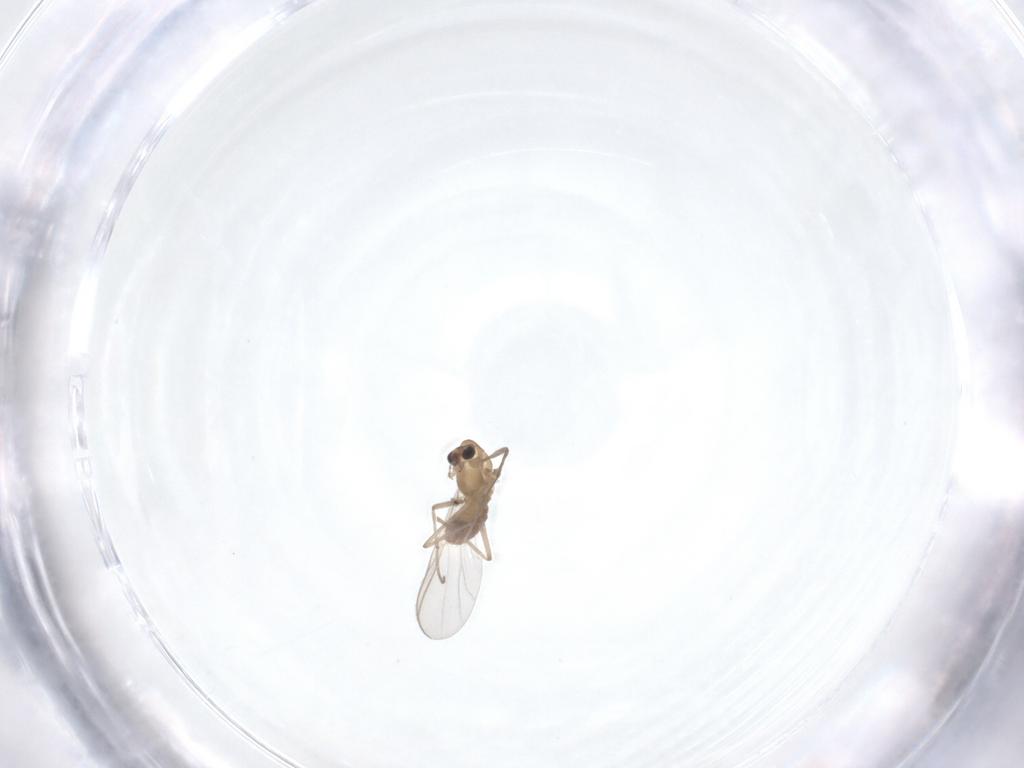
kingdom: Animalia
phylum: Arthropoda
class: Insecta
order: Diptera
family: Chironomidae
